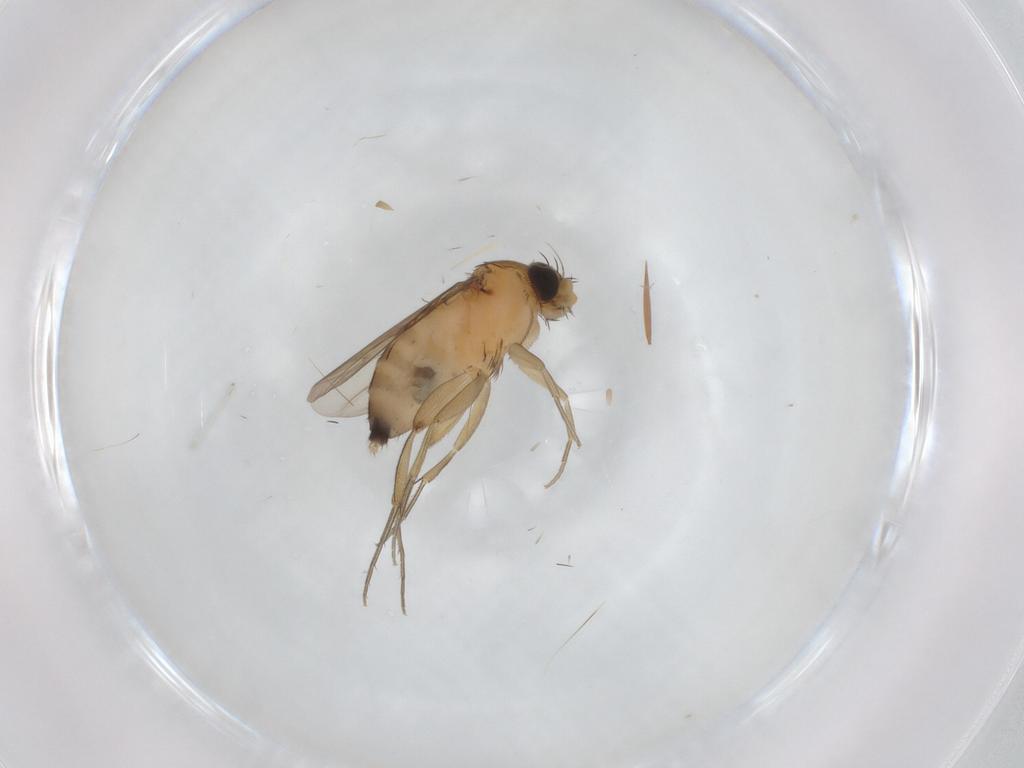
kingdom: Animalia
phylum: Arthropoda
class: Insecta
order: Diptera
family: Phoridae
